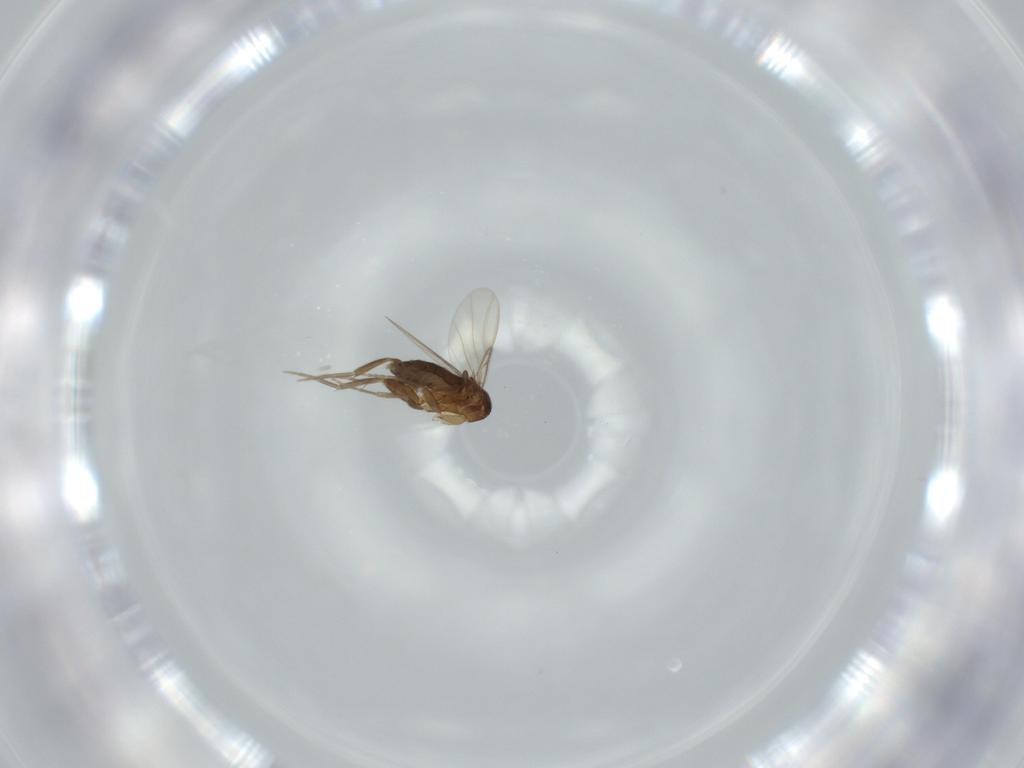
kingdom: Animalia
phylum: Arthropoda
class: Insecta
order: Diptera
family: Phoridae
